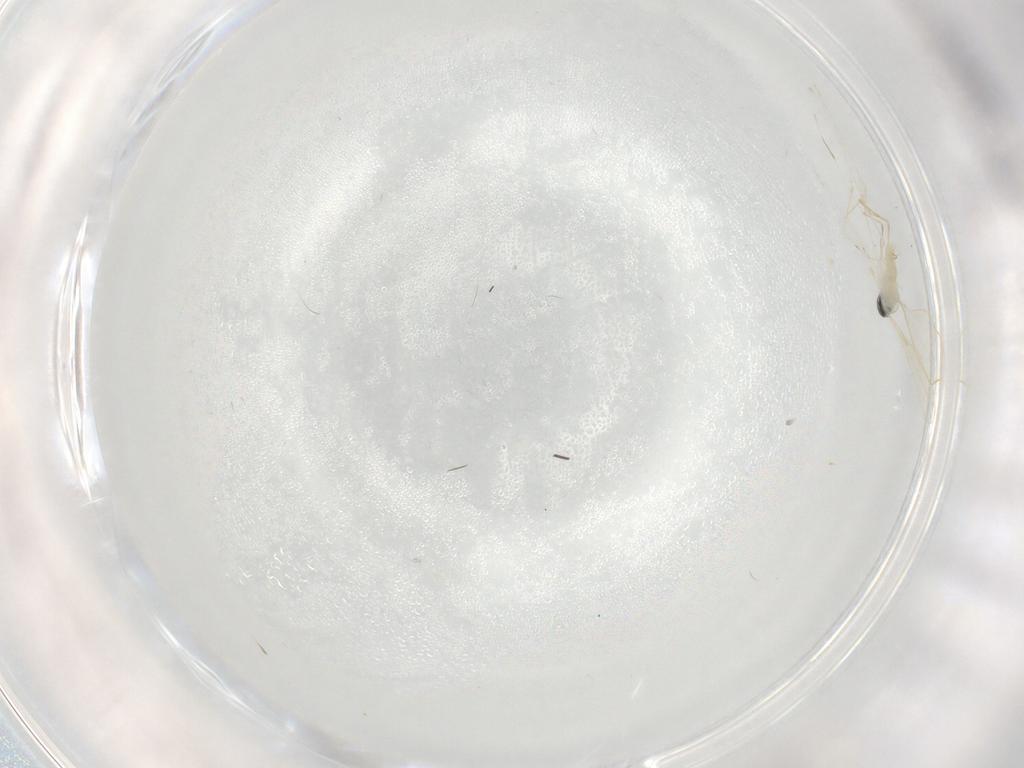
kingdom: Animalia
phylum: Arthropoda
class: Insecta
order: Diptera
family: Cecidomyiidae
